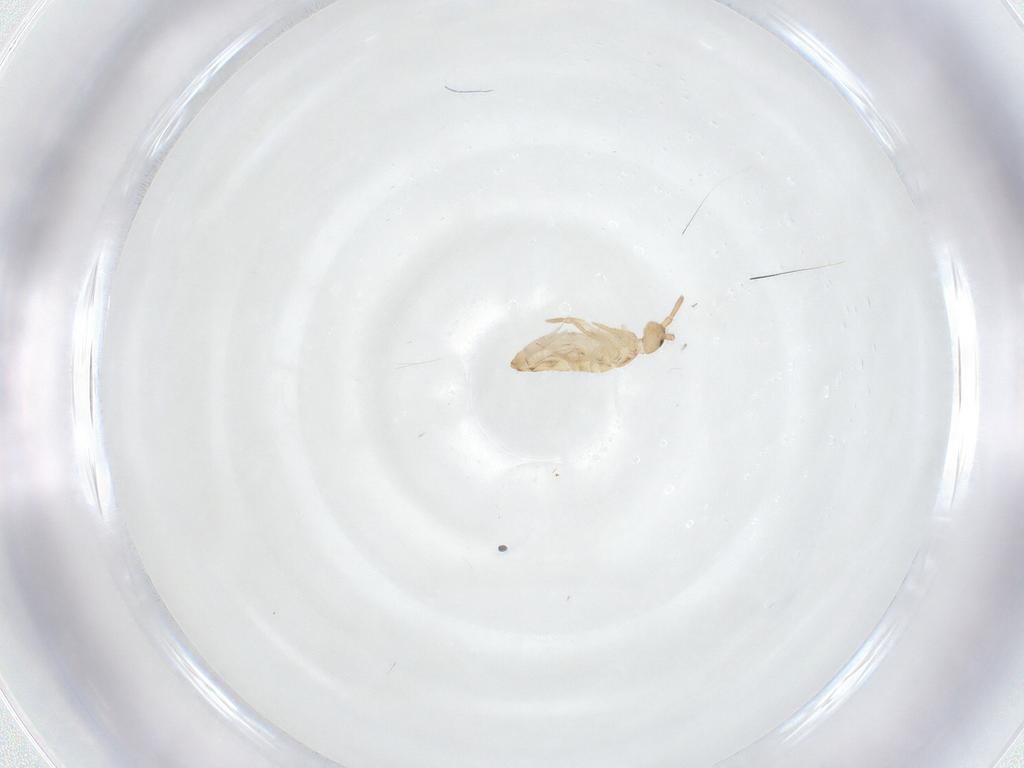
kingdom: Animalia
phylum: Arthropoda
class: Collembola
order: Entomobryomorpha
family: Entomobryidae
